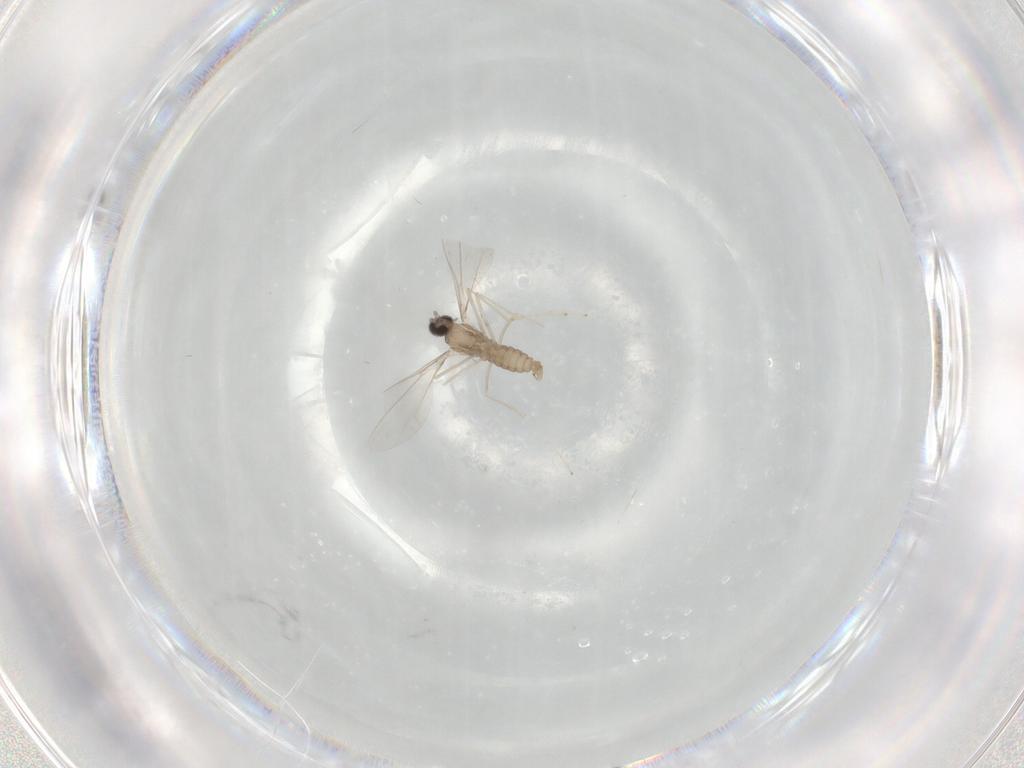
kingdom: Animalia
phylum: Arthropoda
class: Insecta
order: Diptera
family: Cecidomyiidae
